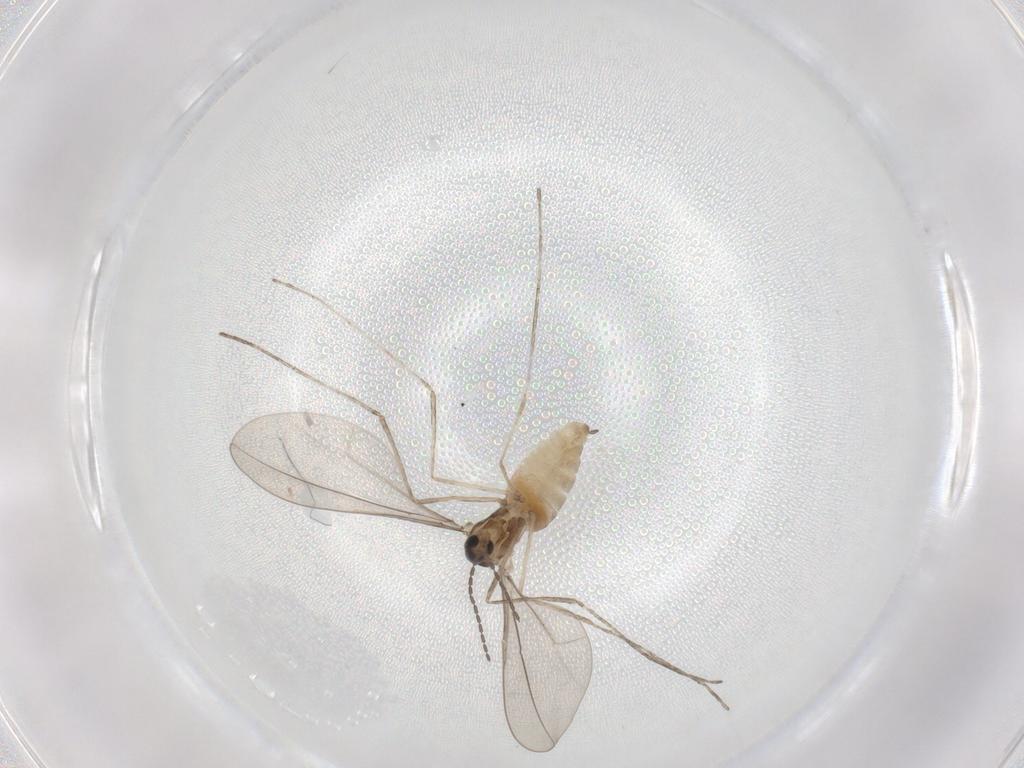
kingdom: Animalia
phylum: Arthropoda
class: Insecta
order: Diptera
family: Cecidomyiidae
